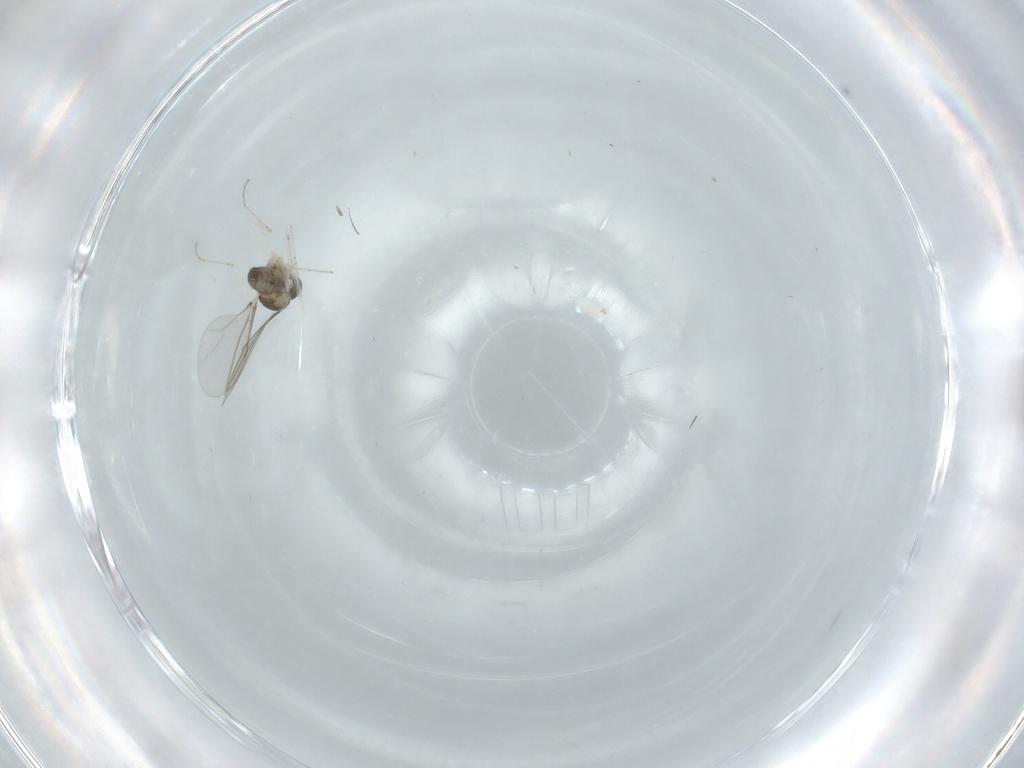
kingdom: Animalia
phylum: Arthropoda
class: Insecta
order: Diptera
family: Cecidomyiidae
